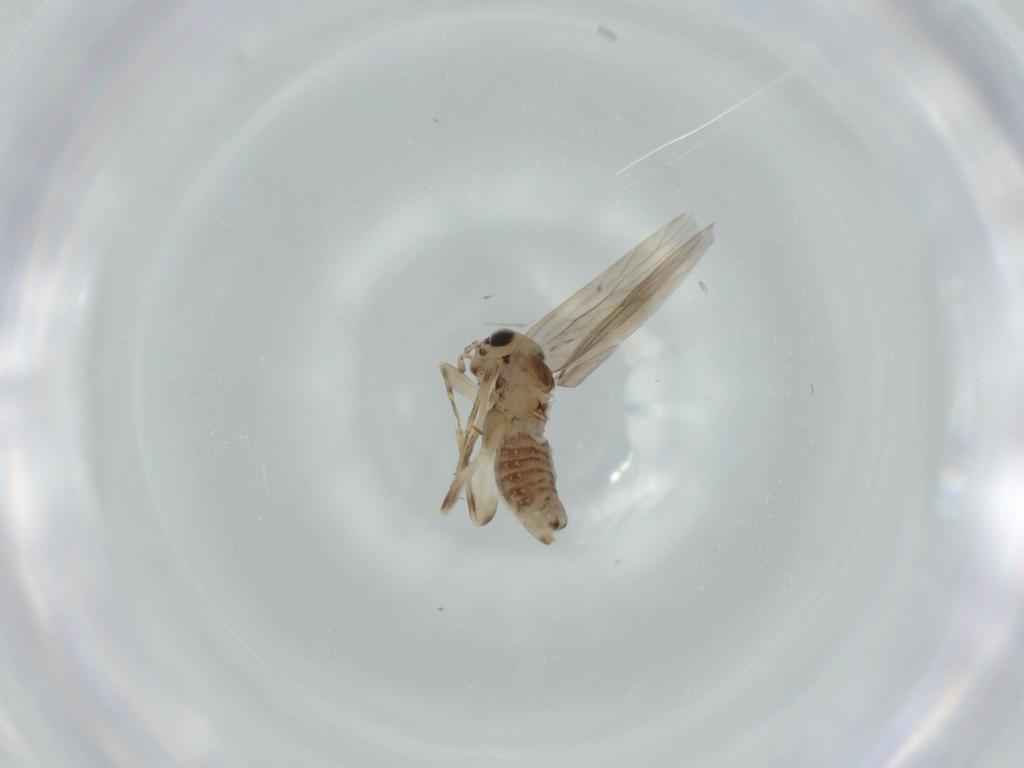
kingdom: Animalia
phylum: Arthropoda
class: Insecta
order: Psocodea
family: Lepidopsocidae
